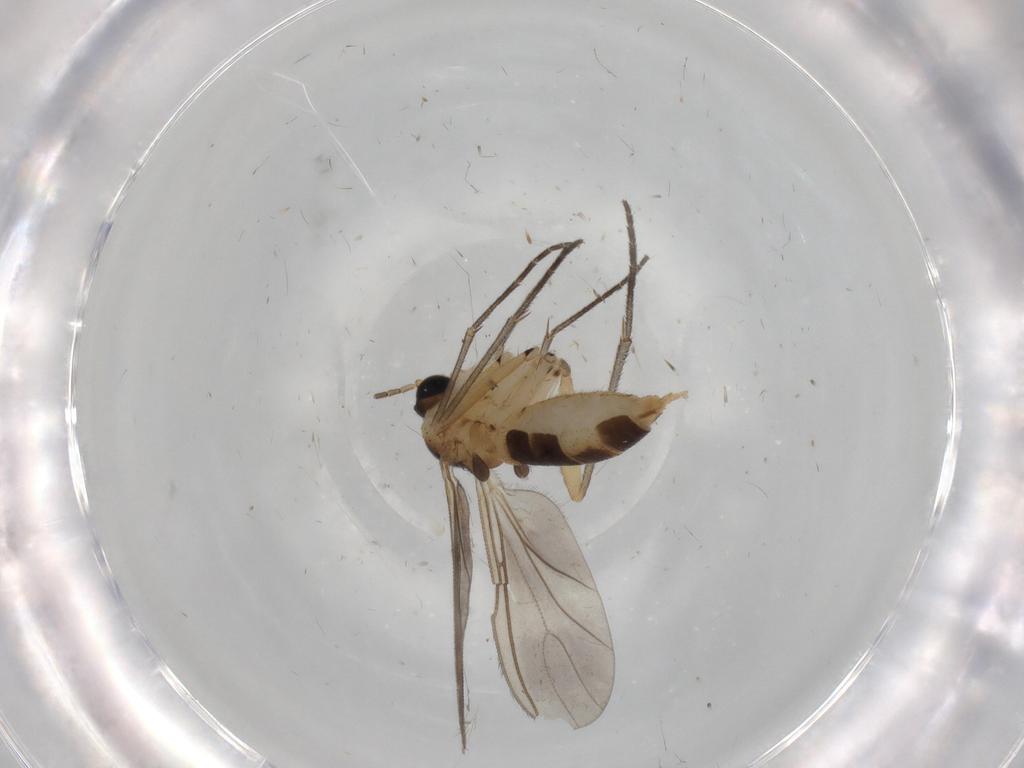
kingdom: Animalia
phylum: Arthropoda
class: Insecta
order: Diptera
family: Sciaridae
